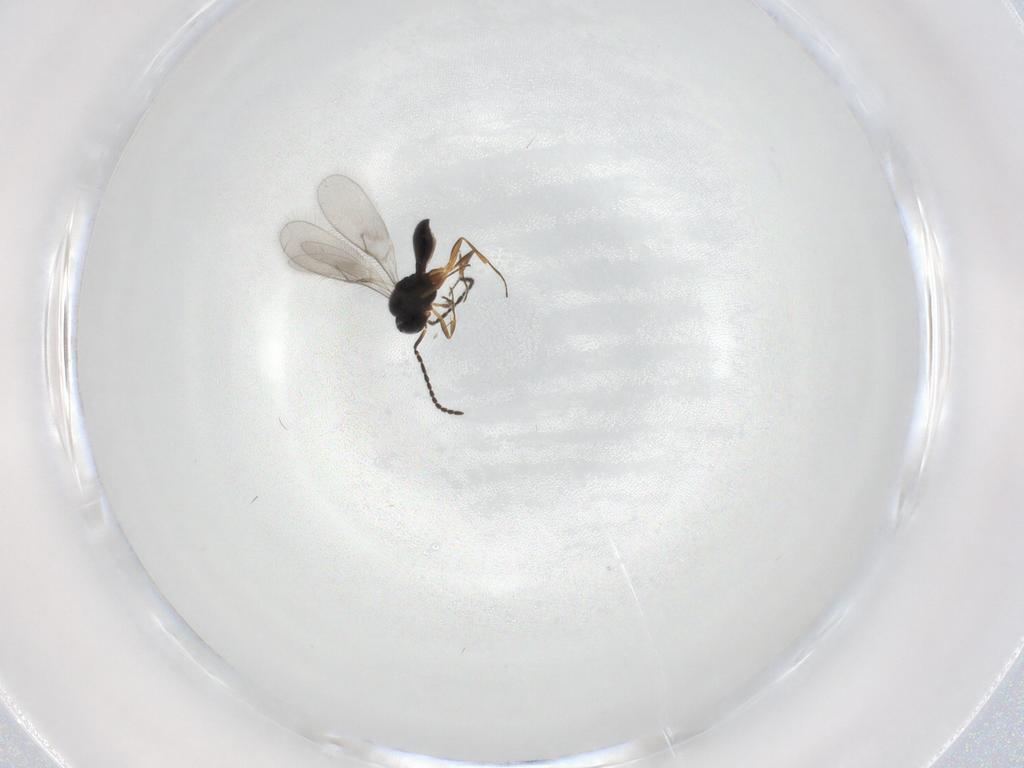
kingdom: Animalia
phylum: Arthropoda
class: Insecta
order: Hymenoptera
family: Scelionidae
